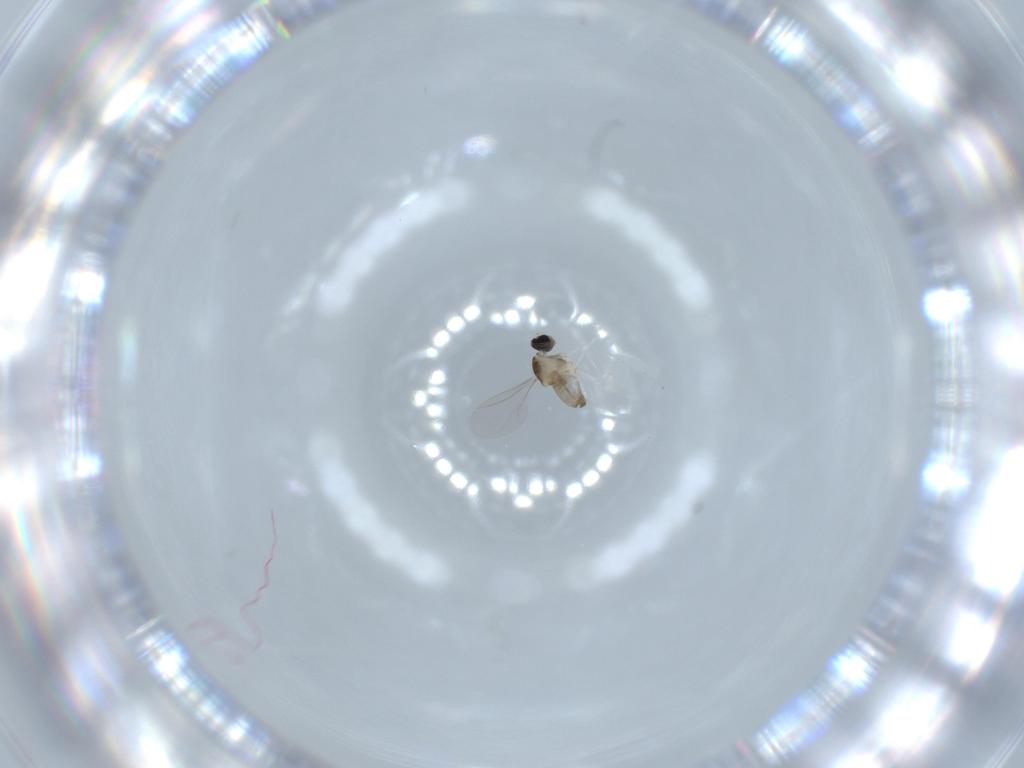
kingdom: Animalia
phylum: Arthropoda
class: Insecta
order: Diptera
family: Cecidomyiidae
